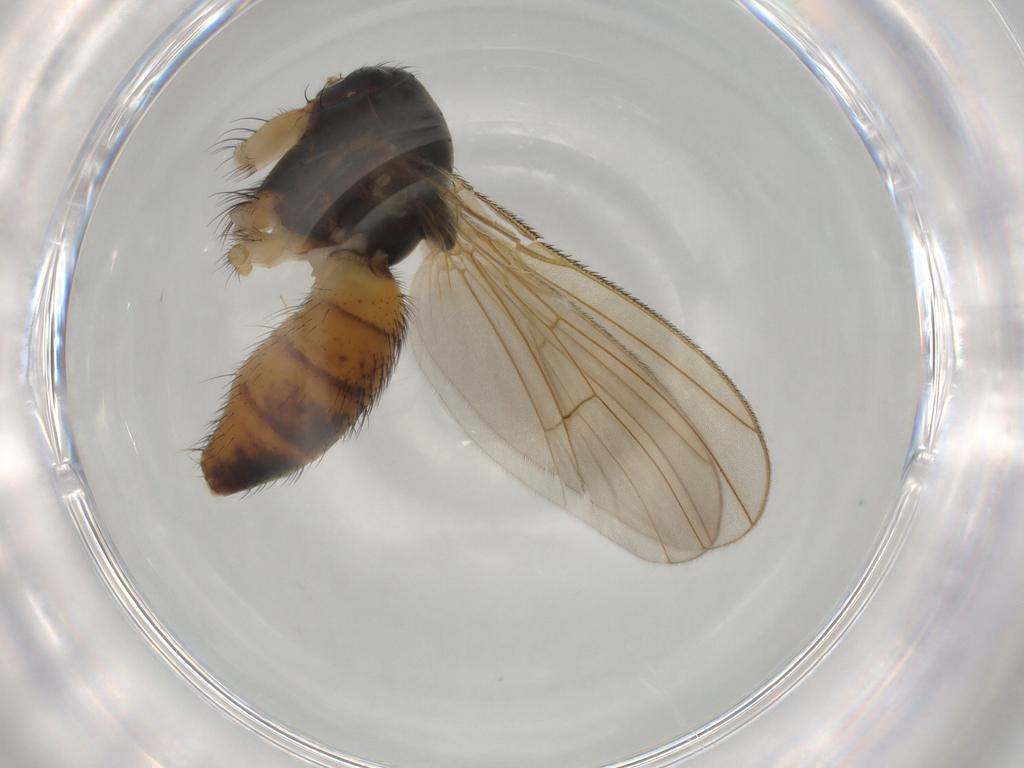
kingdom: Animalia
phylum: Arthropoda
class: Insecta
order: Diptera
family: Muscidae
